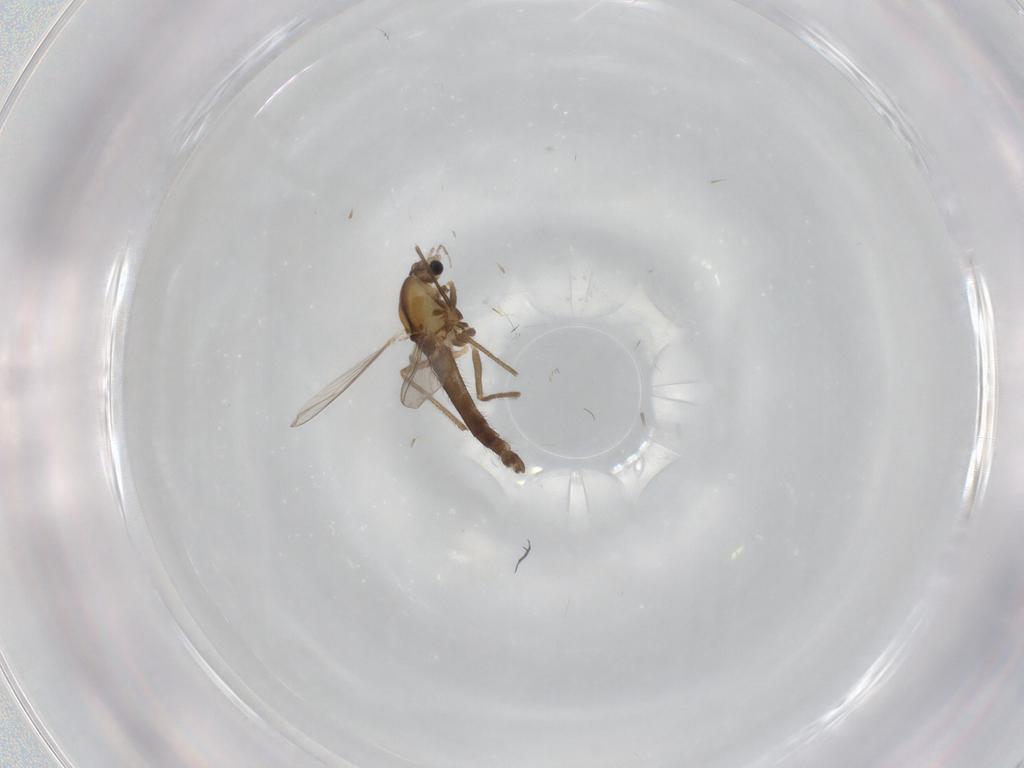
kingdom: Animalia
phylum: Arthropoda
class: Insecta
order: Diptera
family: Chironomidae
